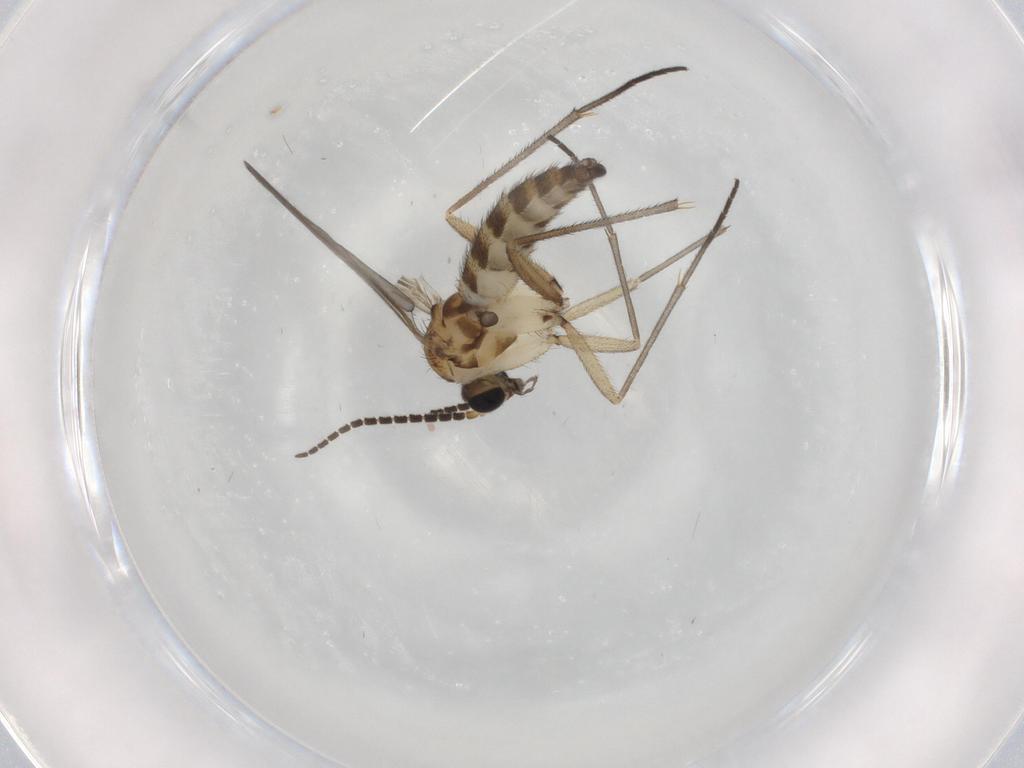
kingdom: Animalia
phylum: Arthropoda
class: Insecta
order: Diptera
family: Sciaridae
